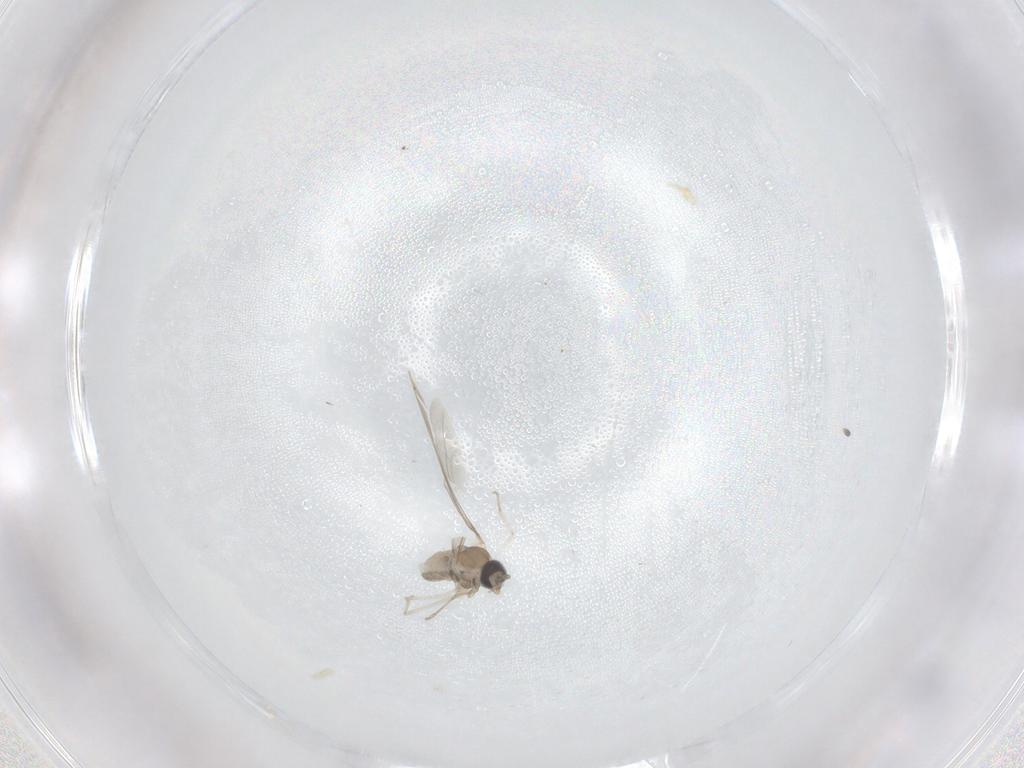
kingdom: Animalia
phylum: Arthropoda
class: Insecta
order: Diptera
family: Cecidomyiidae
